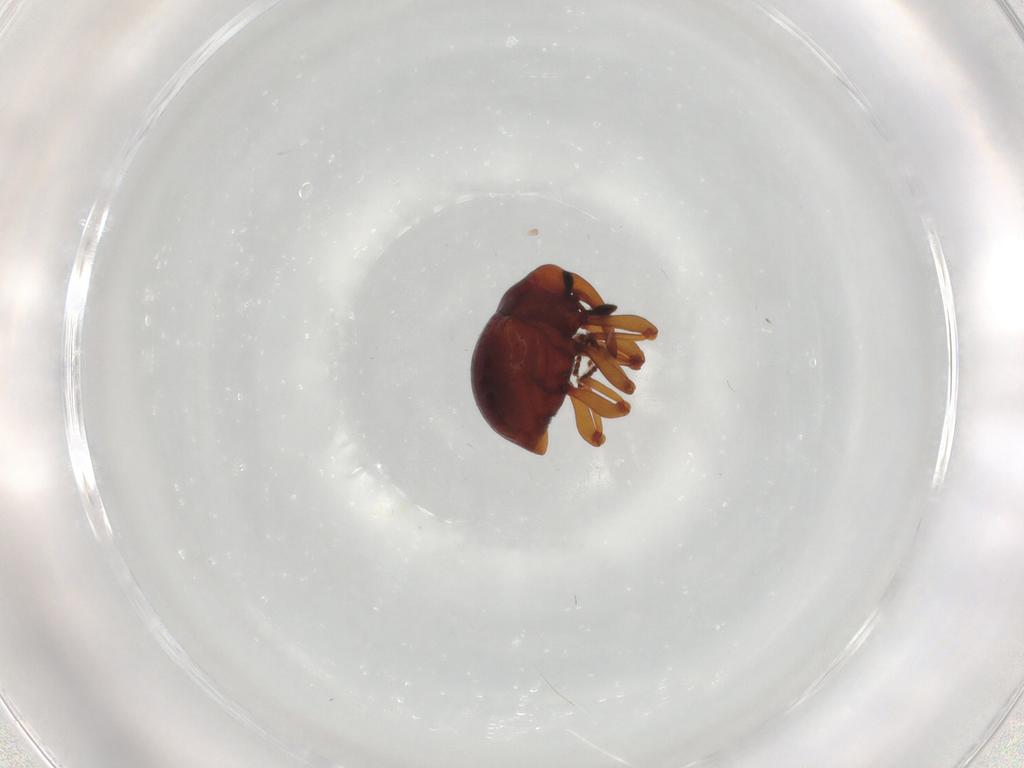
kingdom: Animalia
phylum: Arthropoda
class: Insecta
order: Coleoptera
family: Curculionidae
